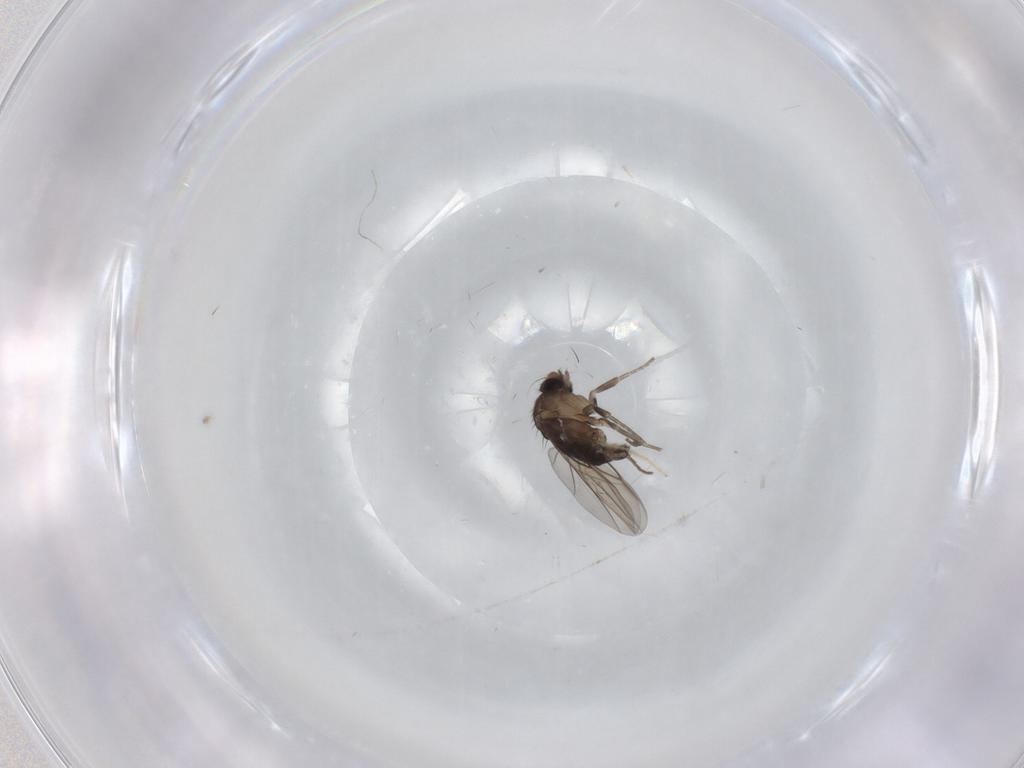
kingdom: Animalia
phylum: Arthropoda
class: Insecta
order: Diptera
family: Phoridae
